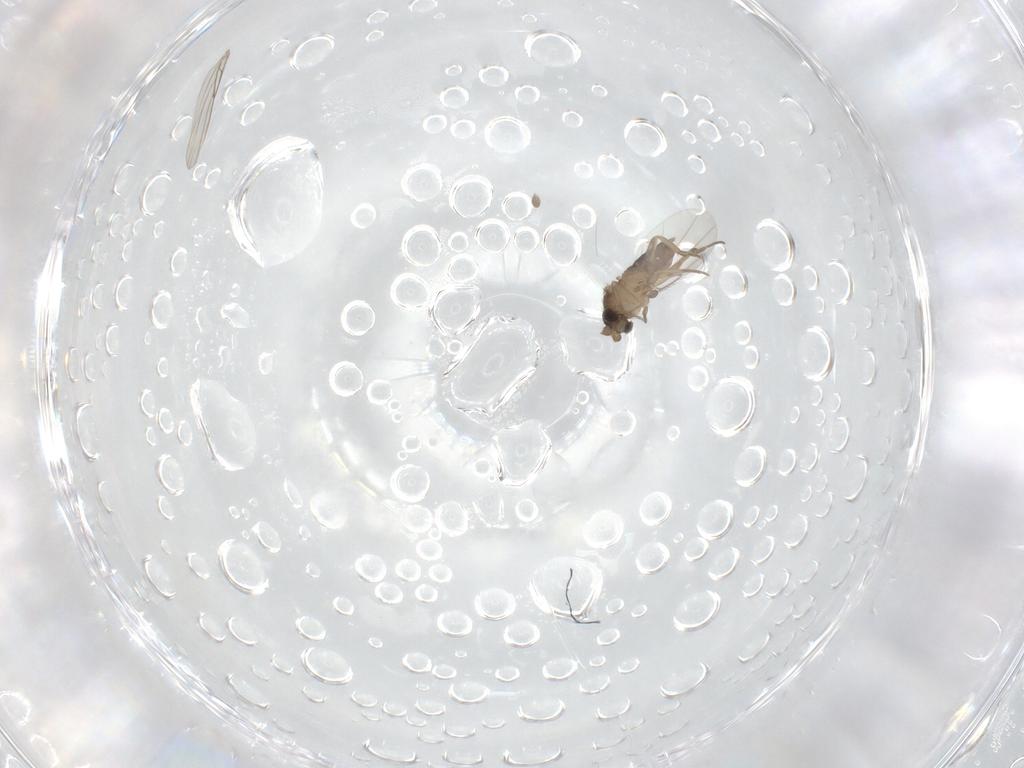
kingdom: Animalia
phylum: Arthropoda
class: Insecta
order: Diptera
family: Phoridae
